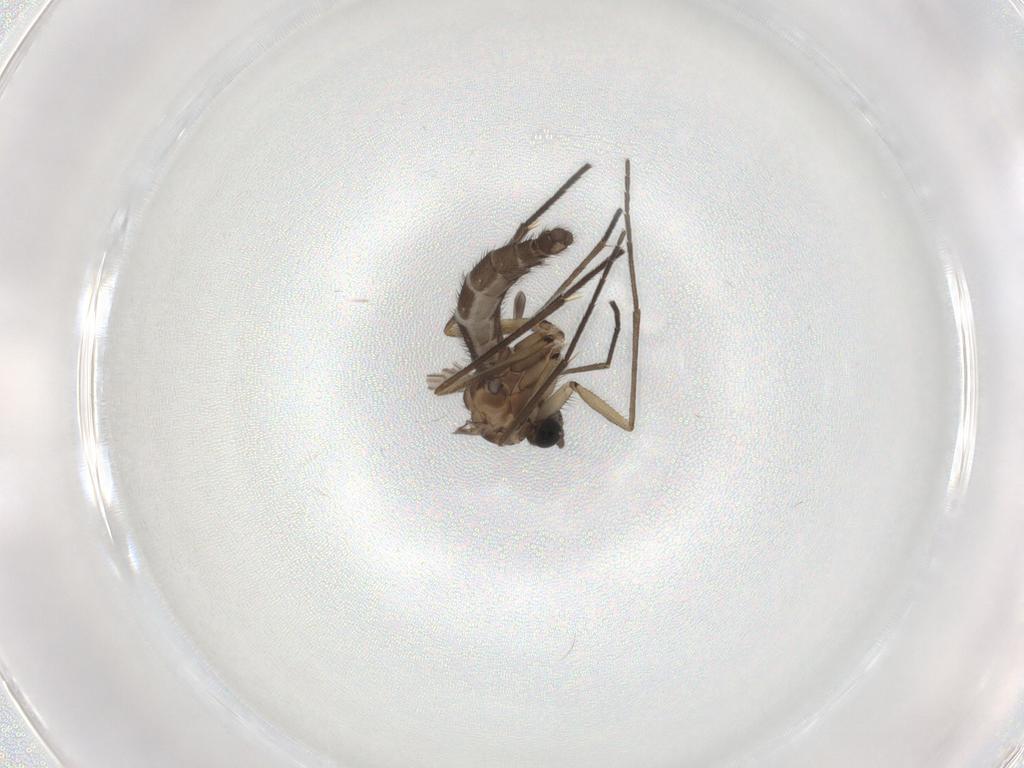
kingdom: Animalia
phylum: Arthropoda
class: Insecta
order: Diptera
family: Sciaridae
